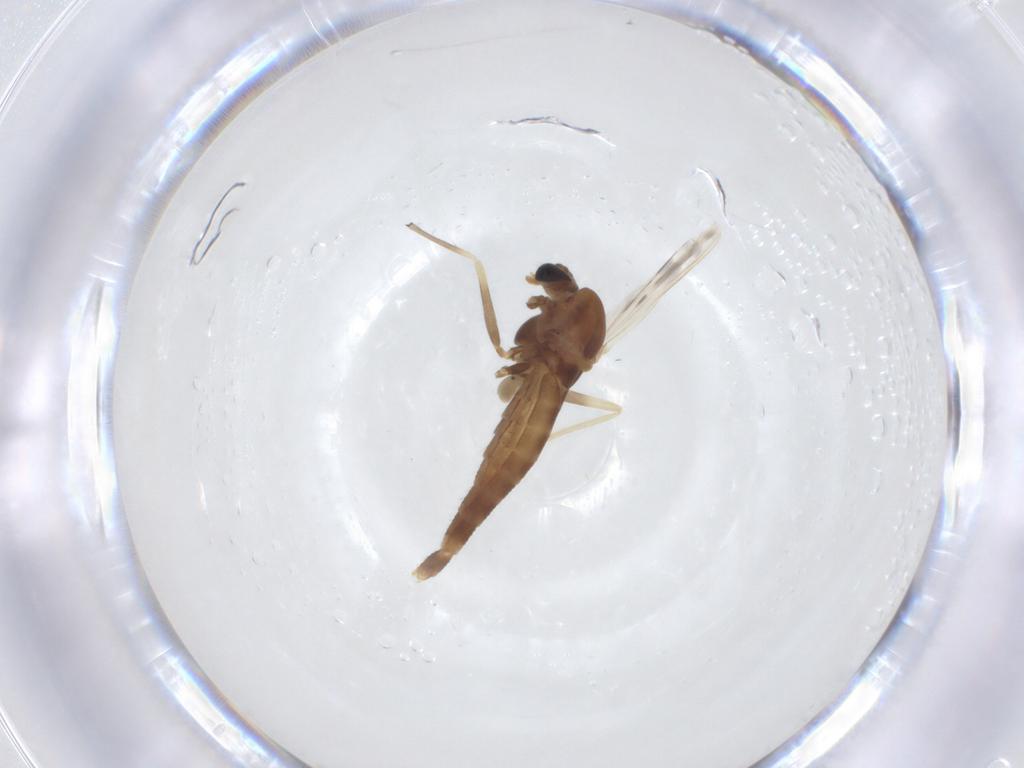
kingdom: Animalia
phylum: Arthropoda
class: Insecta
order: Diptera
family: Chironomidae
